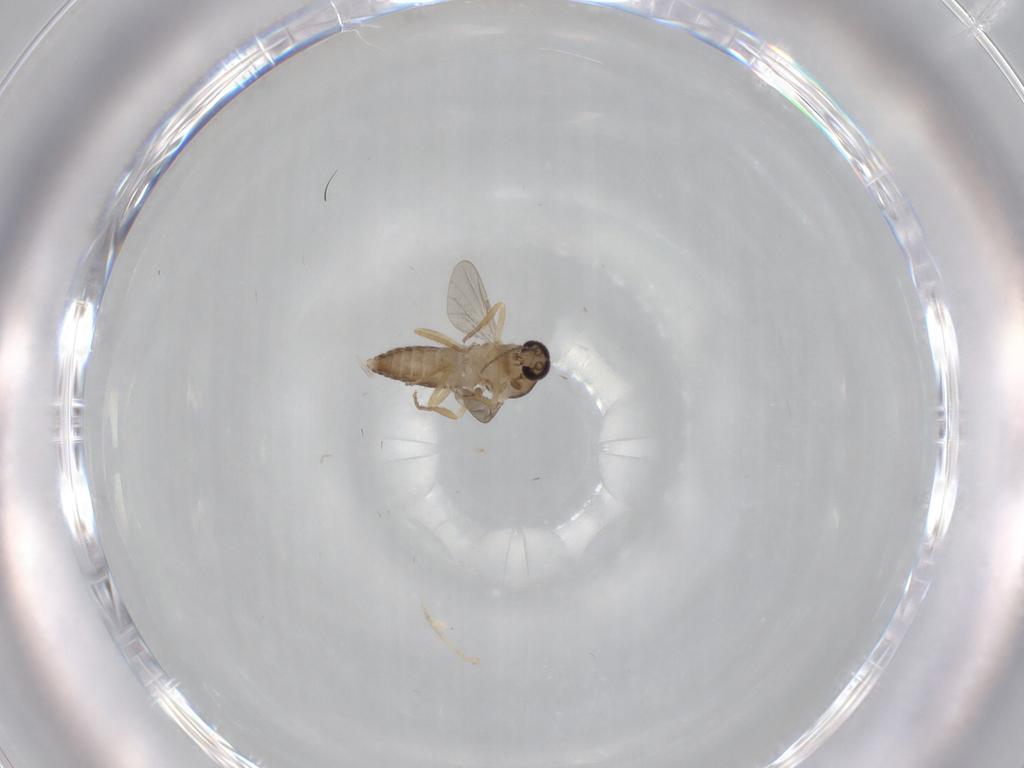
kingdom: Animalia
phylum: Arthropoda
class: Insecta
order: Diptera
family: Ceratopogonidae
